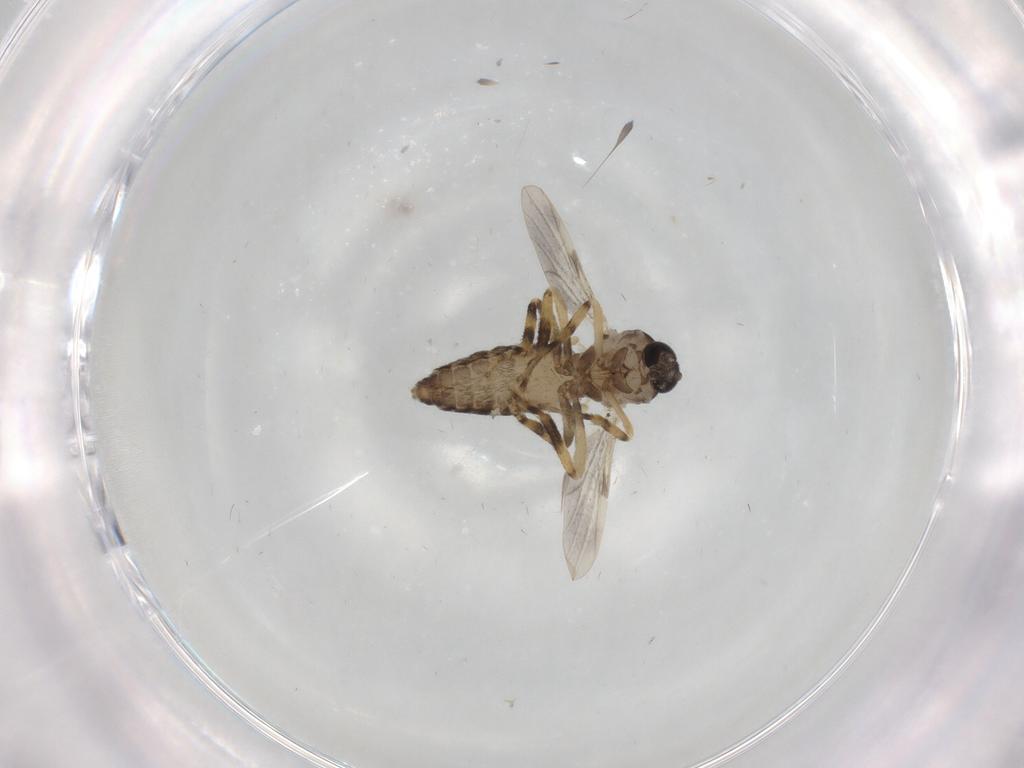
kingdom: Animalia
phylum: Arthropoda
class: Insecta
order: Diptera
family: Ceratopogonidae
